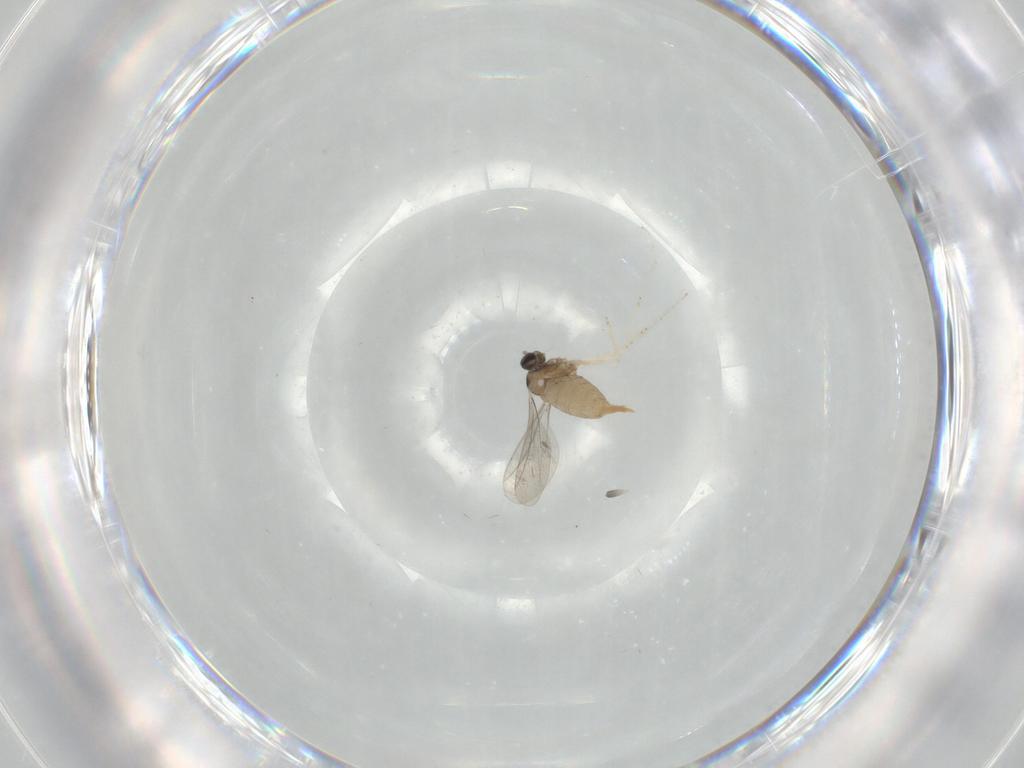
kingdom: Animalia
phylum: Arthropoda
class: Insecta
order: Diptera
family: Cecidomyiidae
